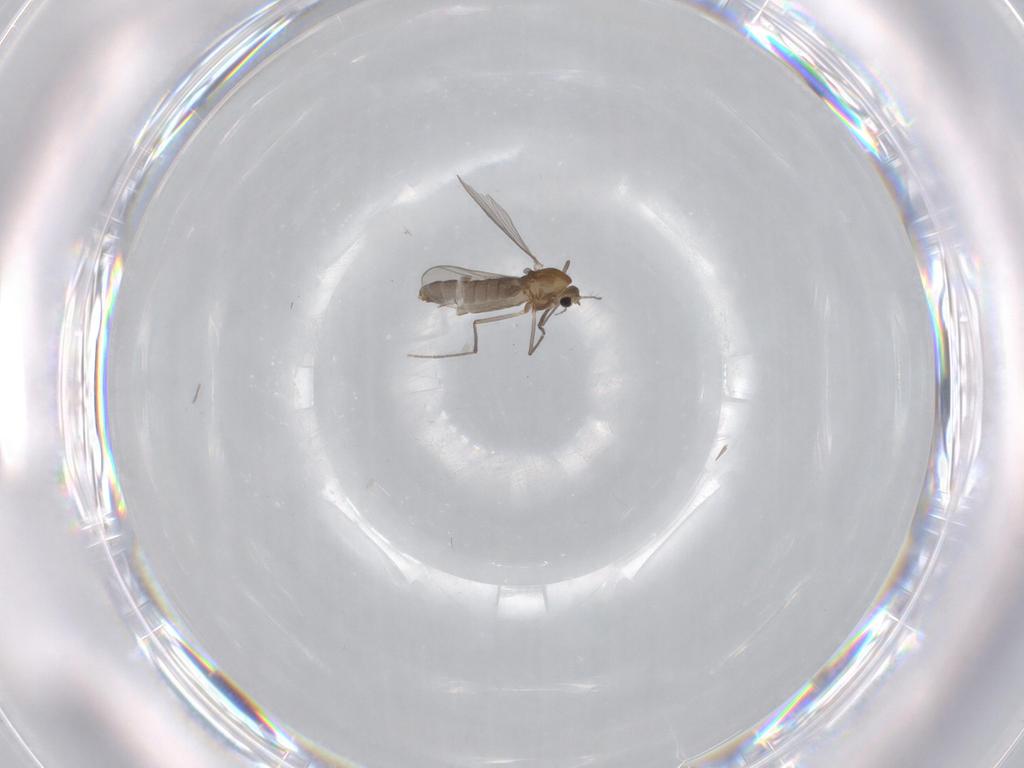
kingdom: Animalia
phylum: Arthropoda
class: Insecta
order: Diptera
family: Chironomidae
